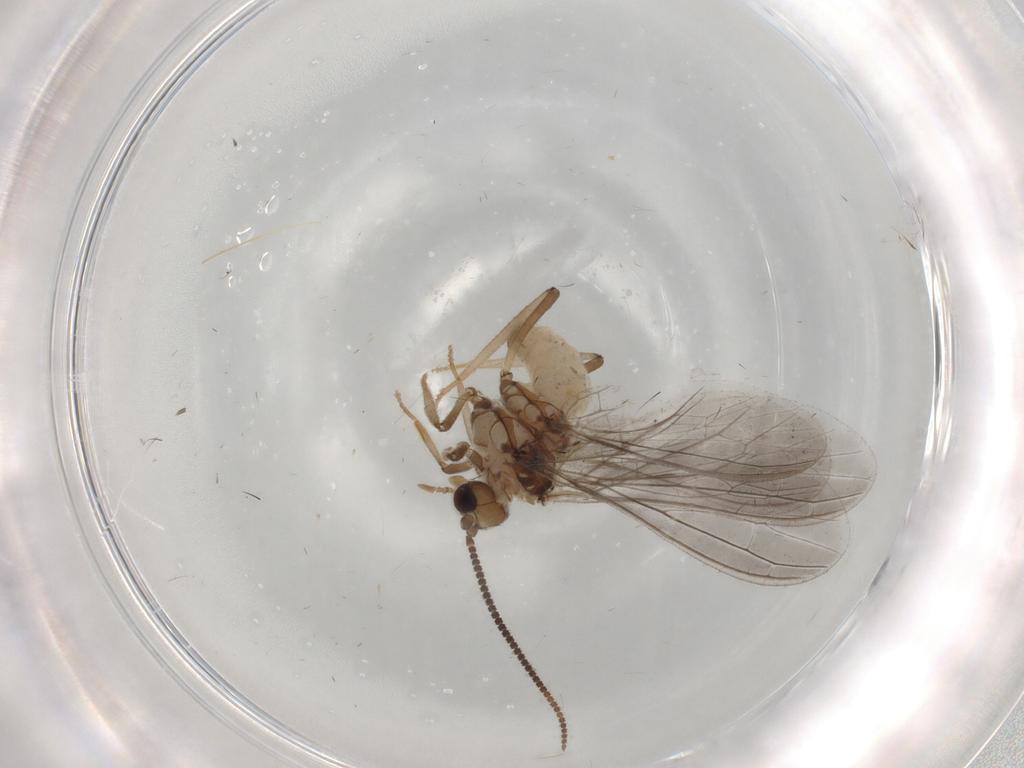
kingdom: Animalia
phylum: Arthropoda
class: Insecta
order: Neuroptera
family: Coniopterygidae
